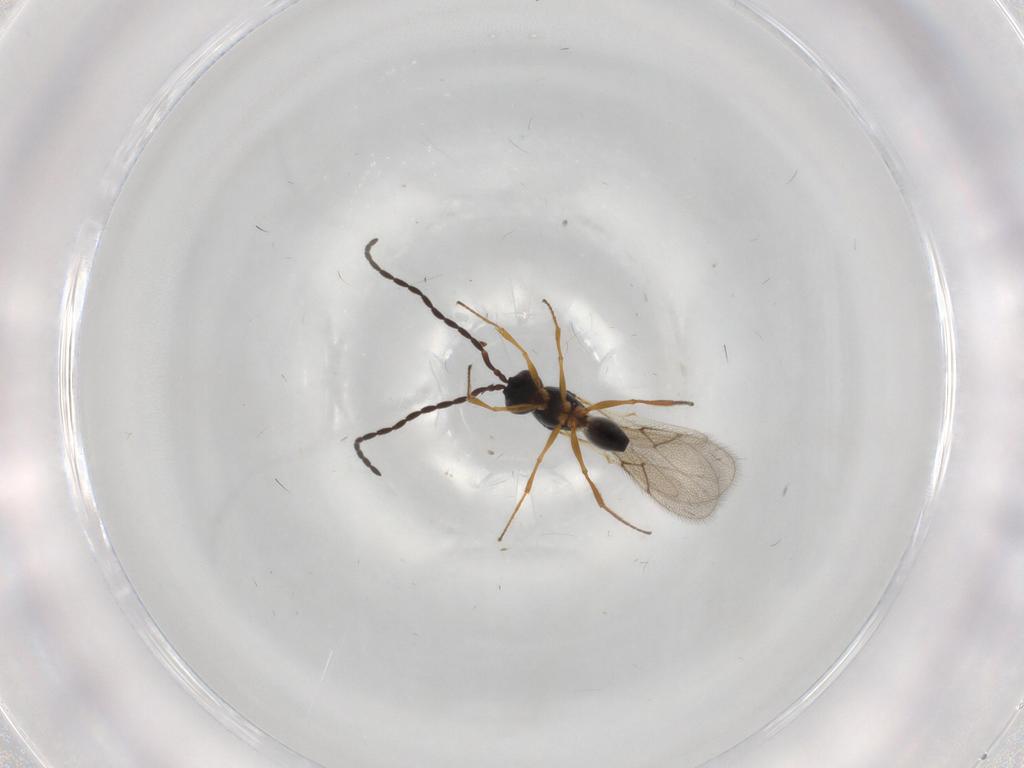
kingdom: Animalia
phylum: Arthropoda
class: Insecta
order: Hymenoptera
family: Figitidae
